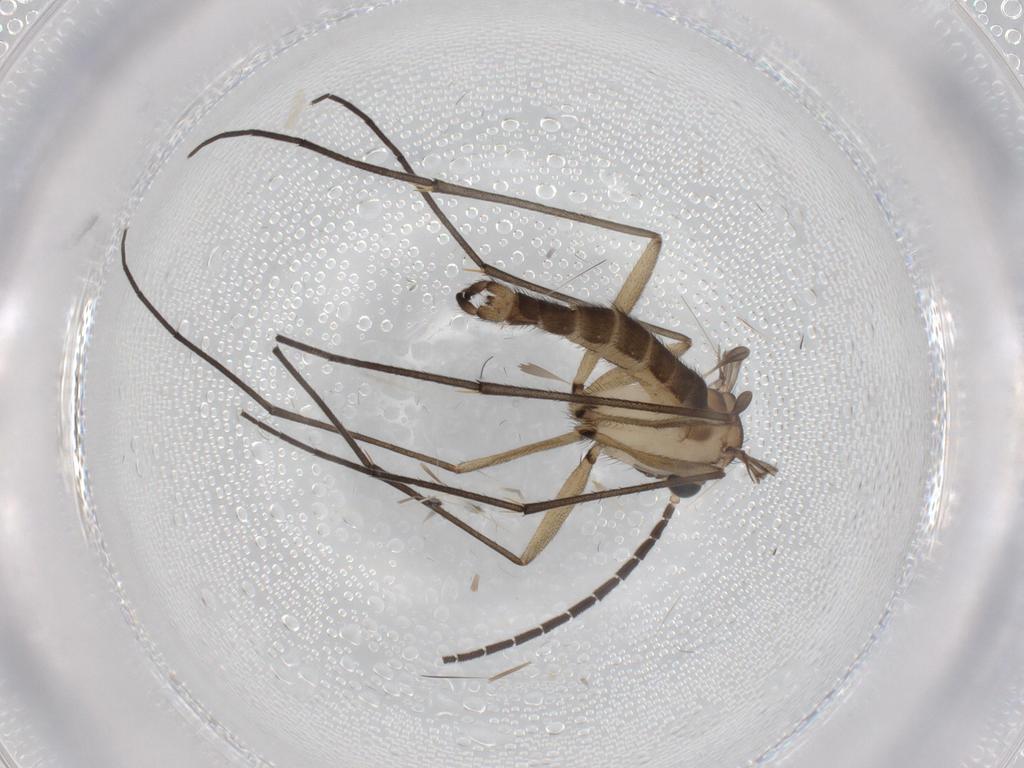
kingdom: Animalia
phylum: Arthropoda
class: Insecta
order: Diptera
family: Sciaridae
